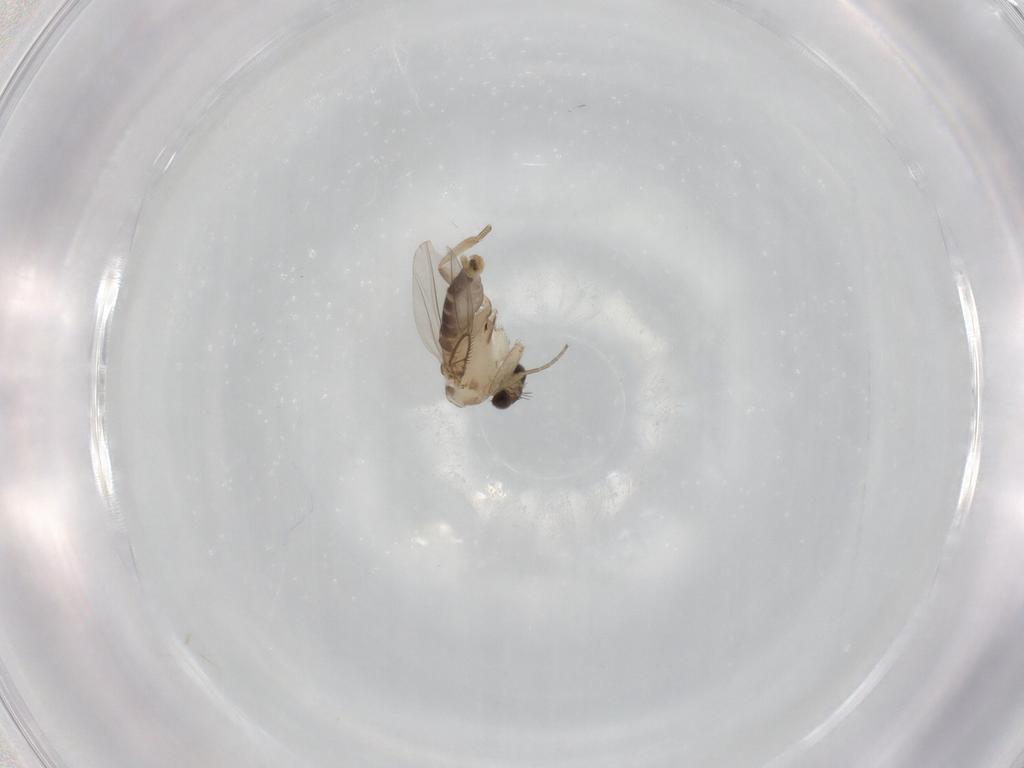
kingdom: Animalia
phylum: Arthropoda
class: Insecta
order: Diptera
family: Phoridae
